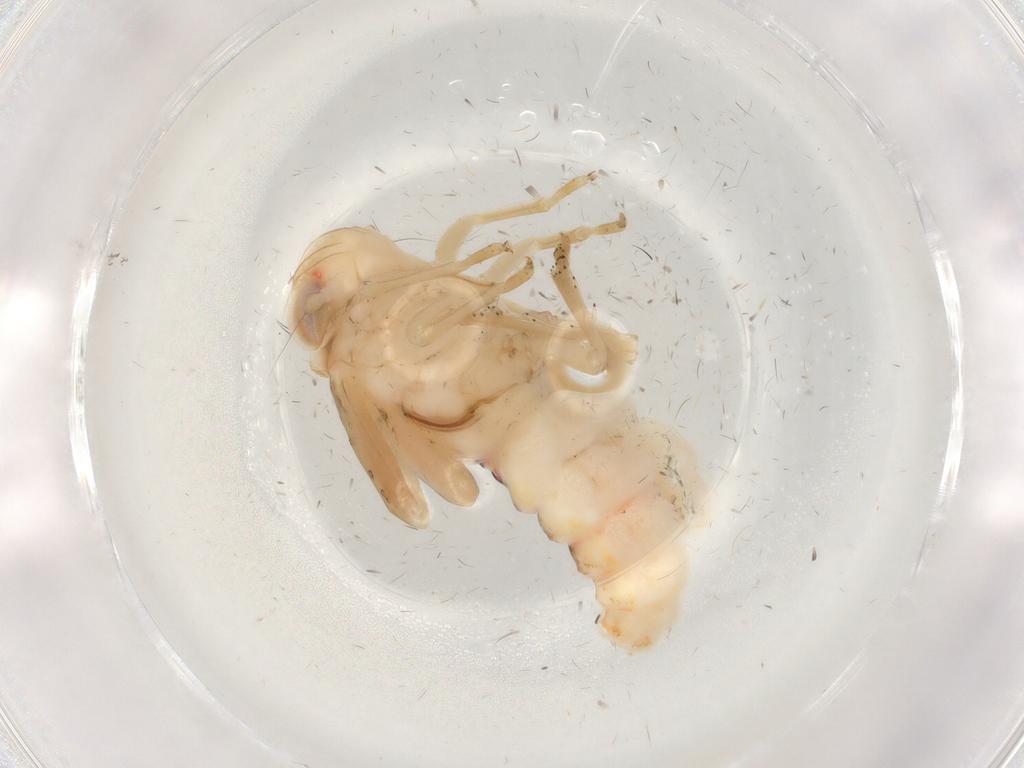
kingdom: Animalia
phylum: Arthropoda
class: Insecta
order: Hemiptera
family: Cicadellidae
